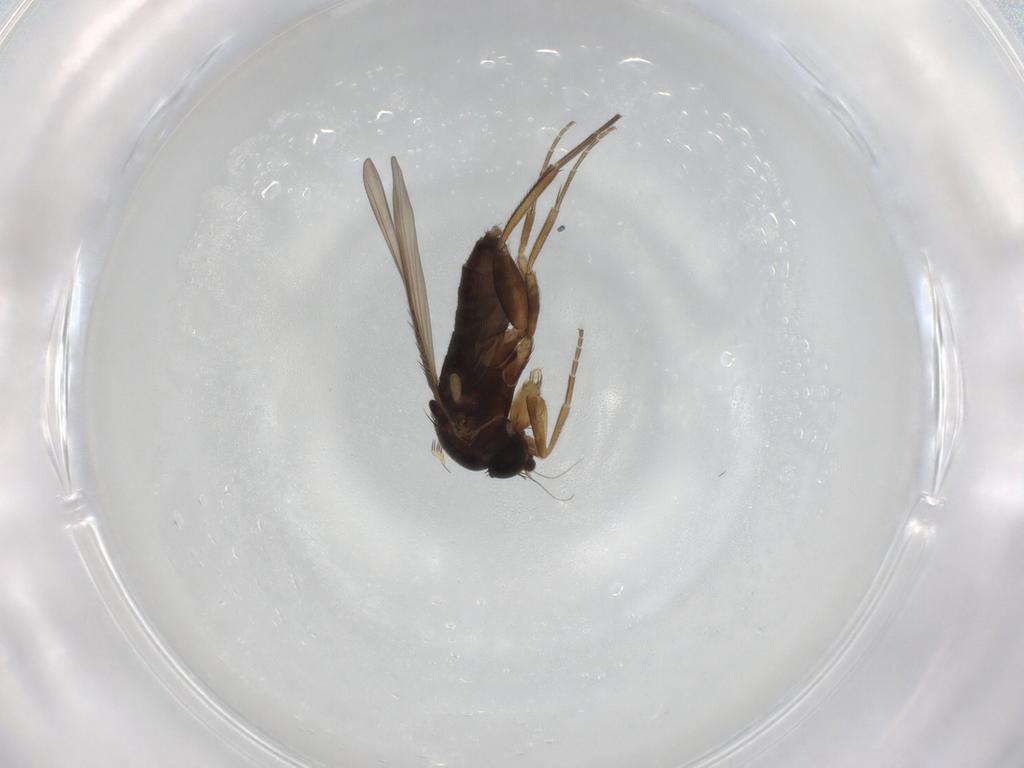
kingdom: Animalia
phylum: Arthropoda
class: Insecta
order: Diptera
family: Phoridae
